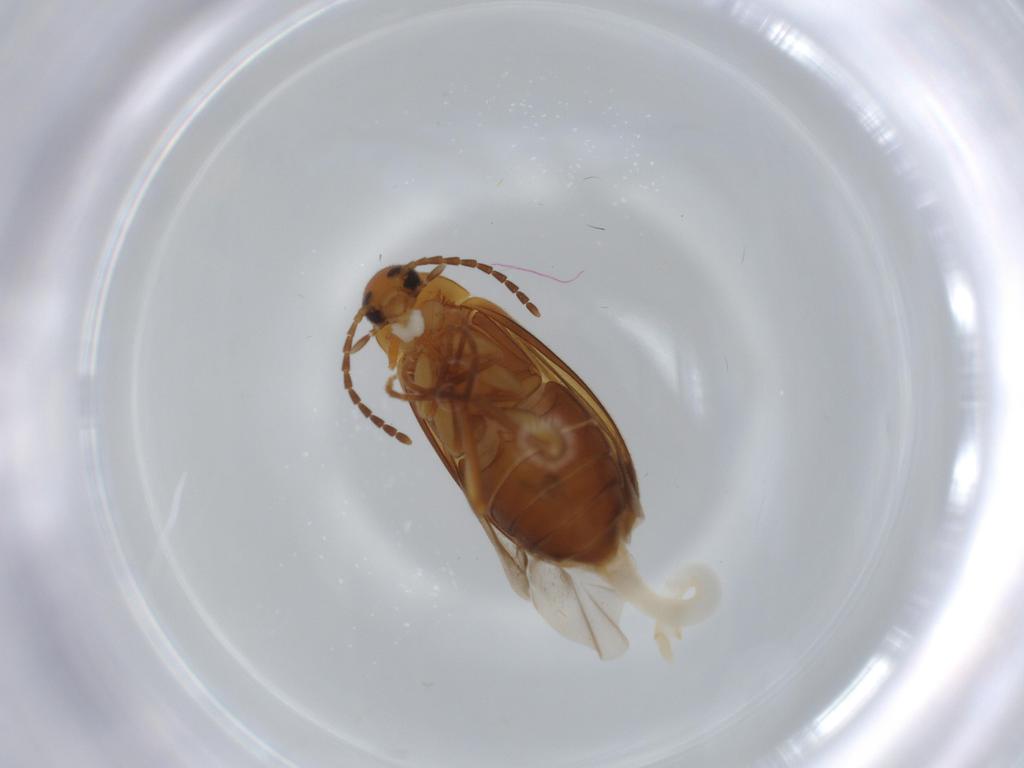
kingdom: Animalia
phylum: Arthropoda
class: Insecta
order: Coleoptera
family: Scraptiidae
